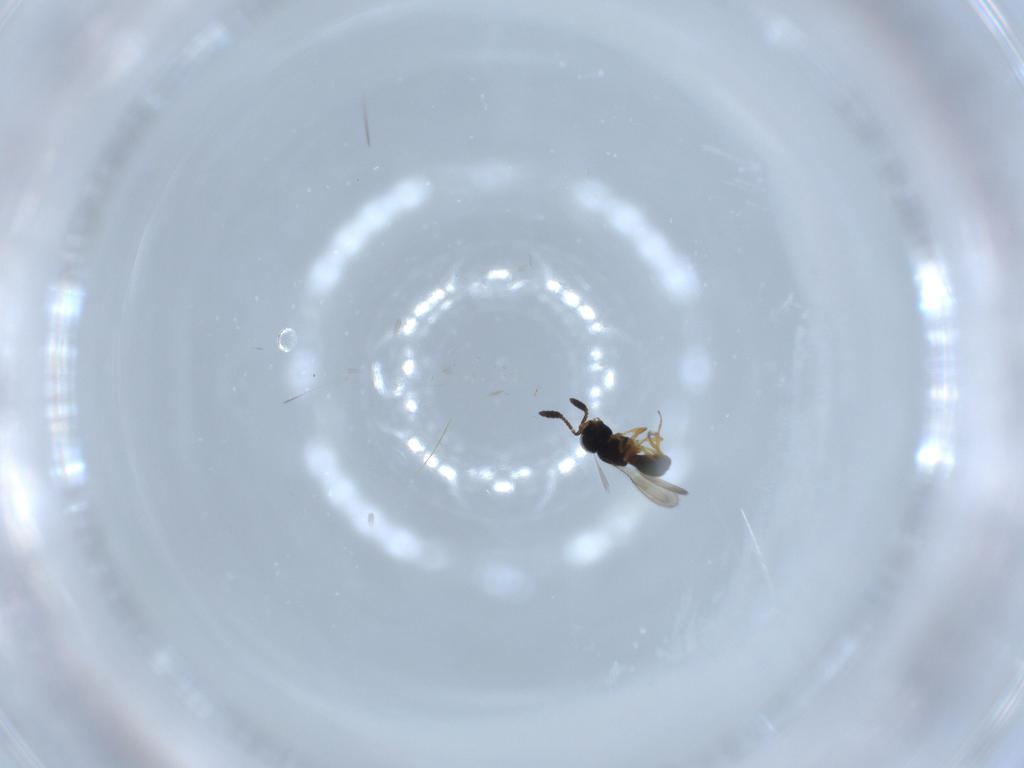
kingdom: Animalia
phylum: Arthropoda
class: Insecta
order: Hymenoptera
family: Scelionidae
